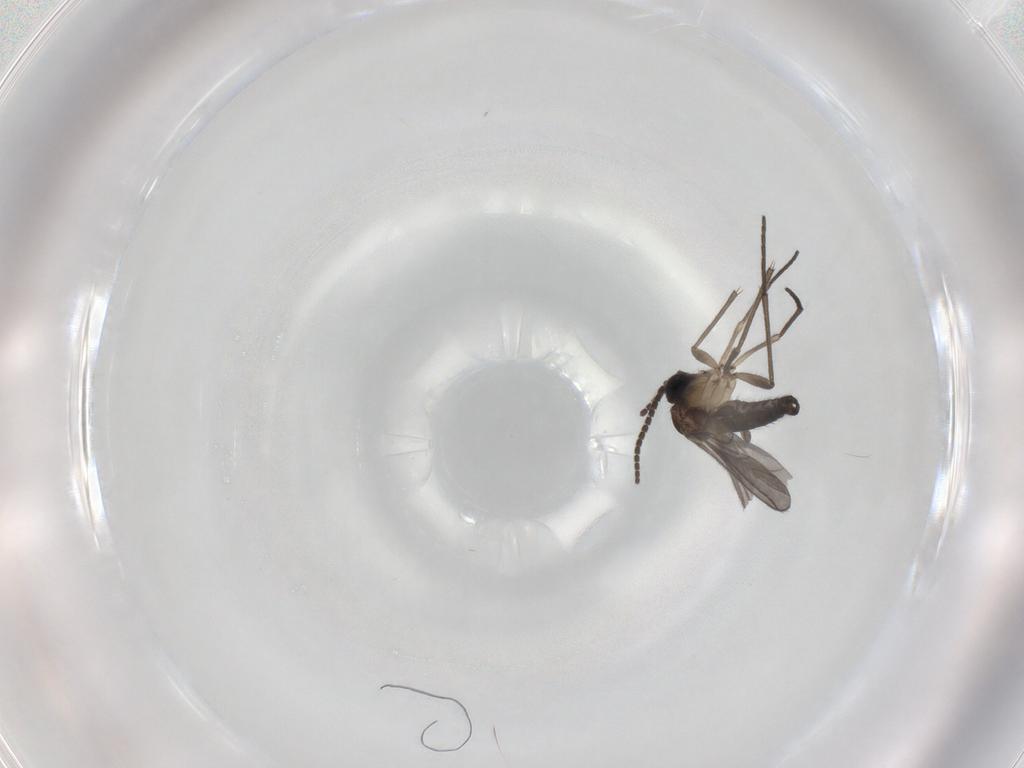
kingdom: Animalia
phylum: Arthropoda
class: Insecta
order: Diptera
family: Sciaridae
